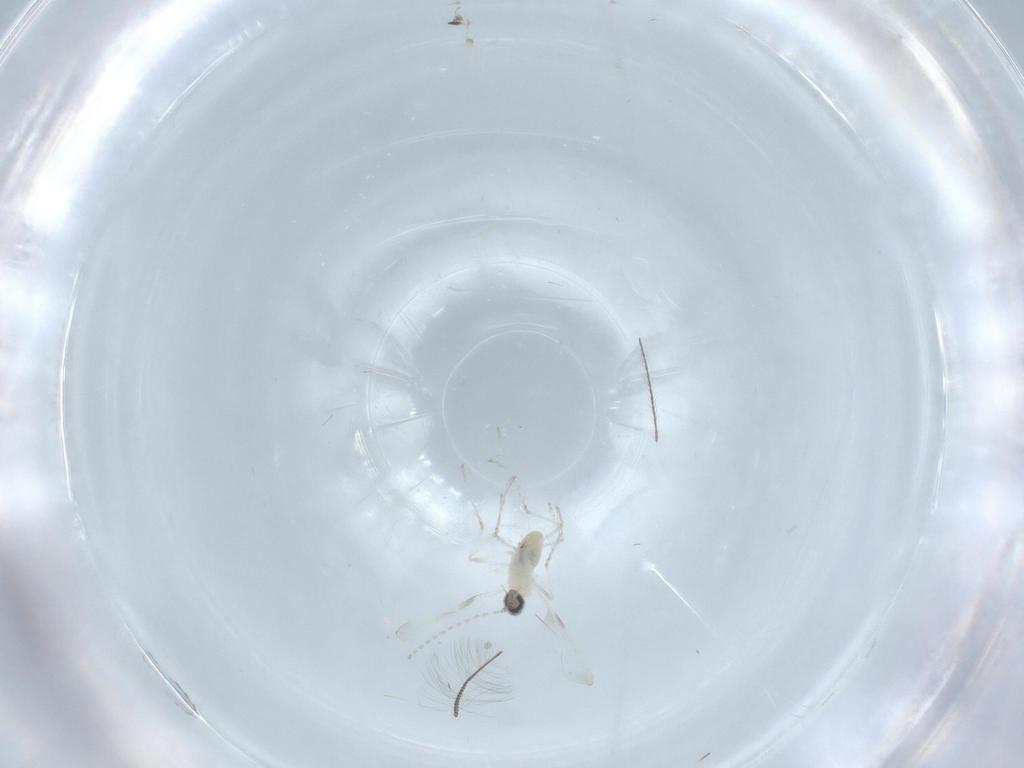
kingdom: Animalia
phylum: Arthropoda
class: Insecta
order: Diptera
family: Cecidomyiidae
